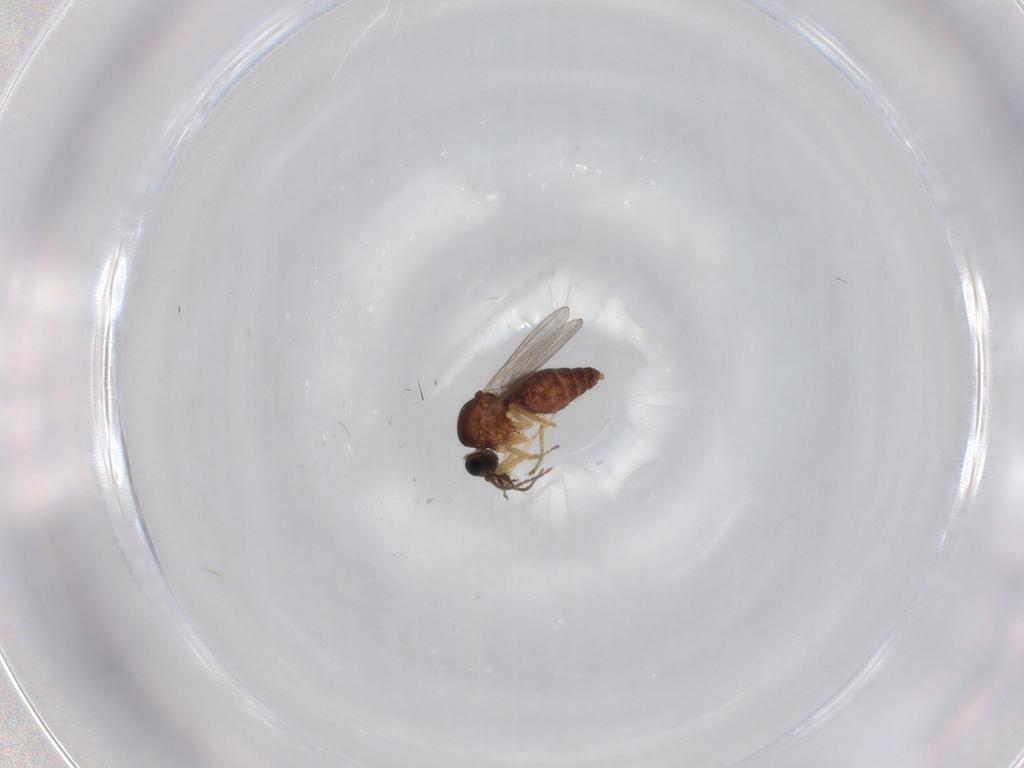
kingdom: Animalia
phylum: Arthropoda
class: Insecta
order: Diptera
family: Ceratopogonidae
